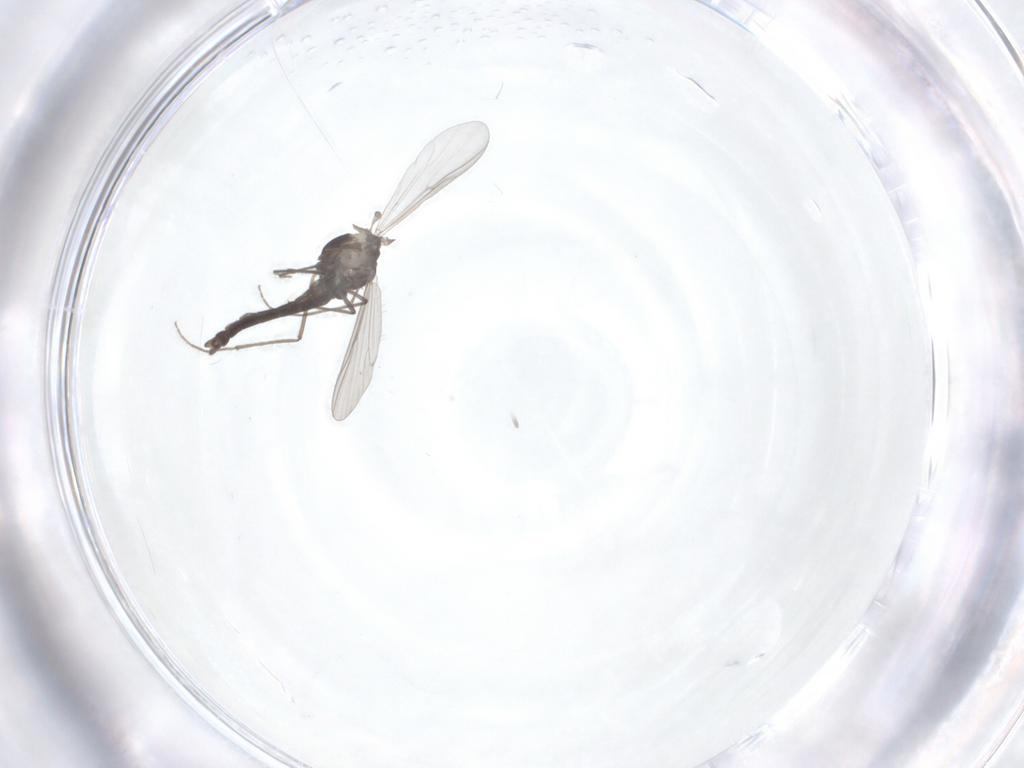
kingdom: Animalia
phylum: Arthropoda
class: Insecta
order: Diptera
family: Chironomidae
